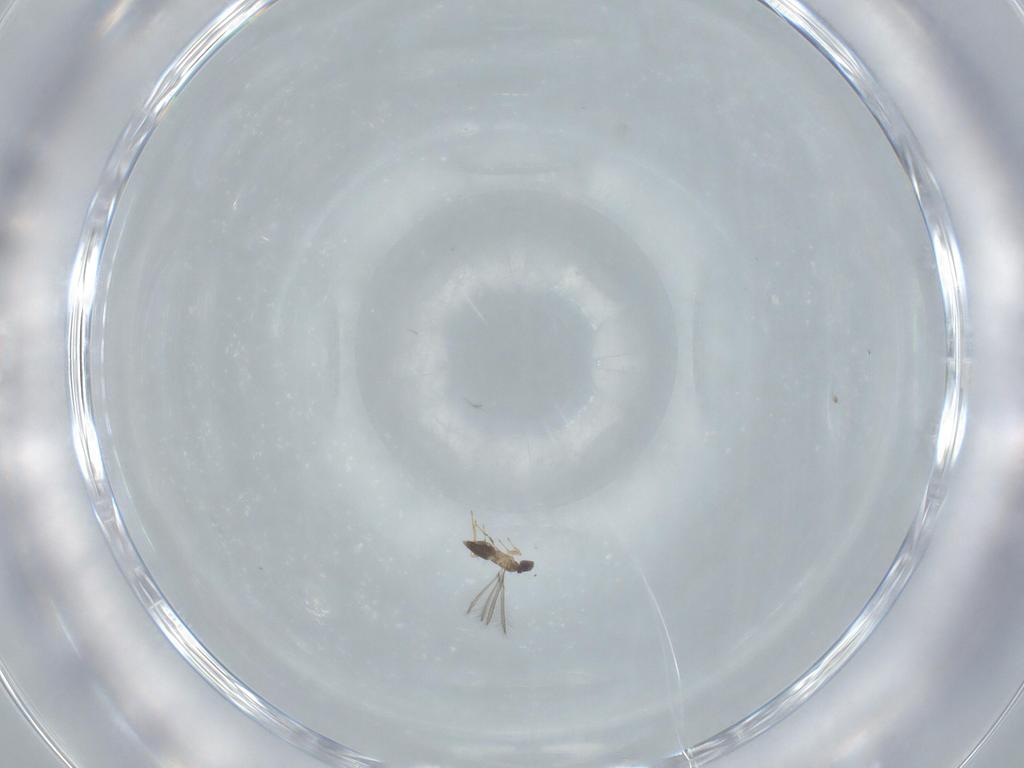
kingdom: Animalia
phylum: Arthropoda
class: Insecta
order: Hymenoptera
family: Mymaridae
